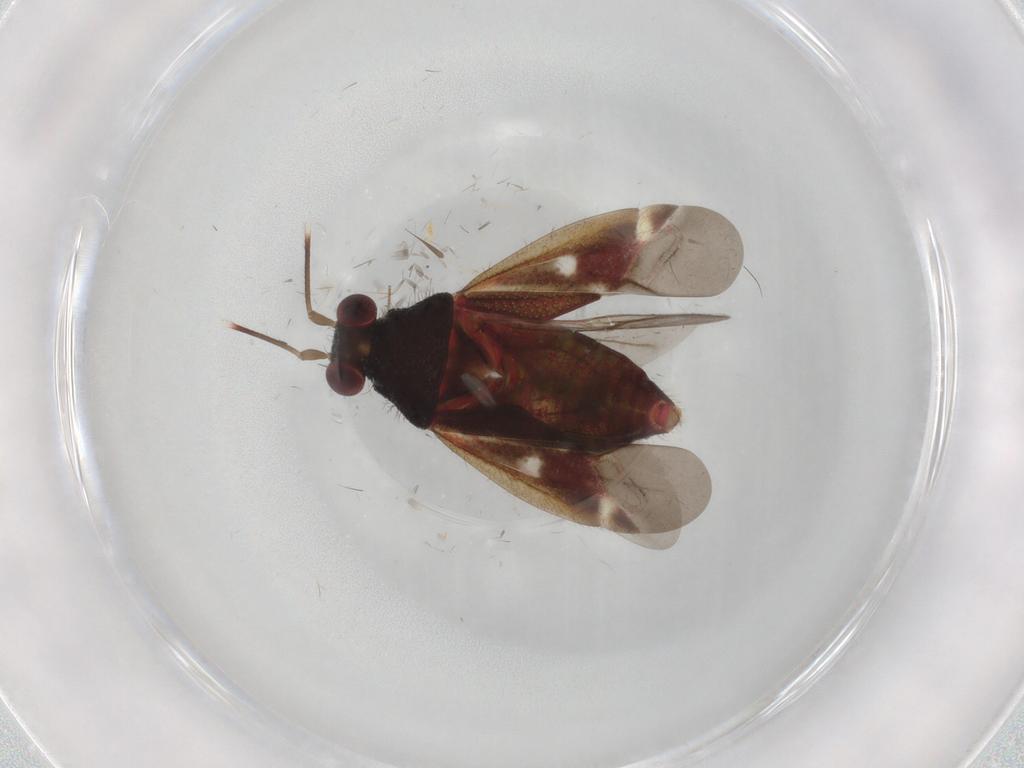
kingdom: Animalia
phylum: Arthropoda
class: Insecta
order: Hemiptera
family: Miridae
